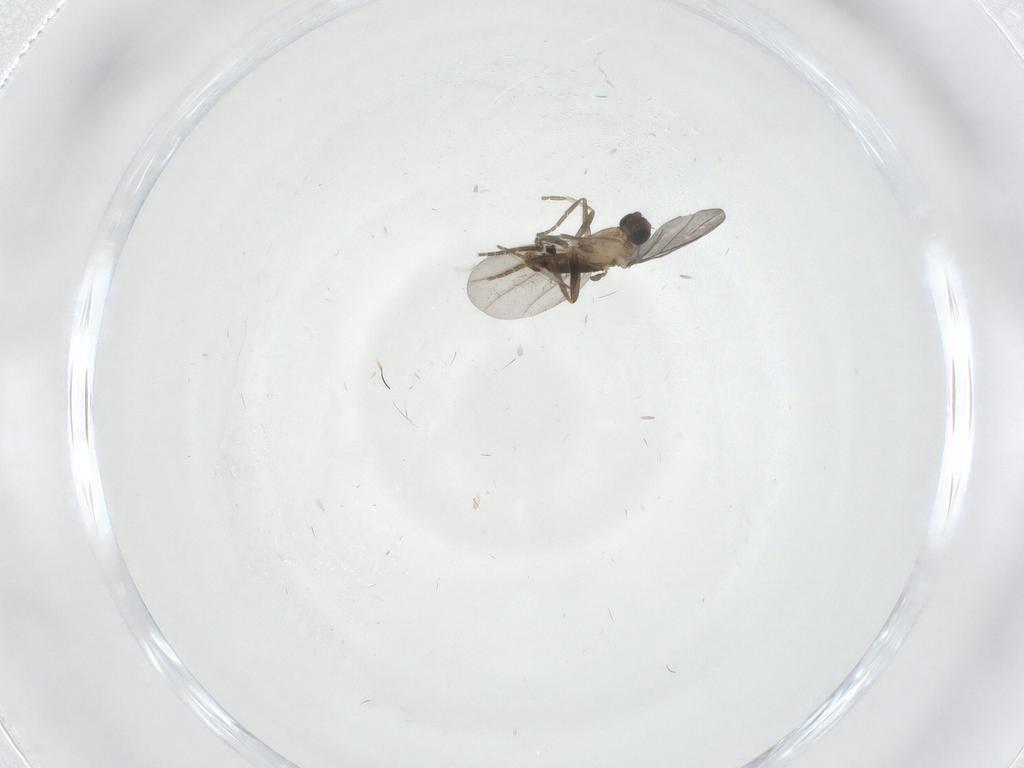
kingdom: Animalia
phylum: Arthropoda
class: Insecta
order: Diptera
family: Phoridae
